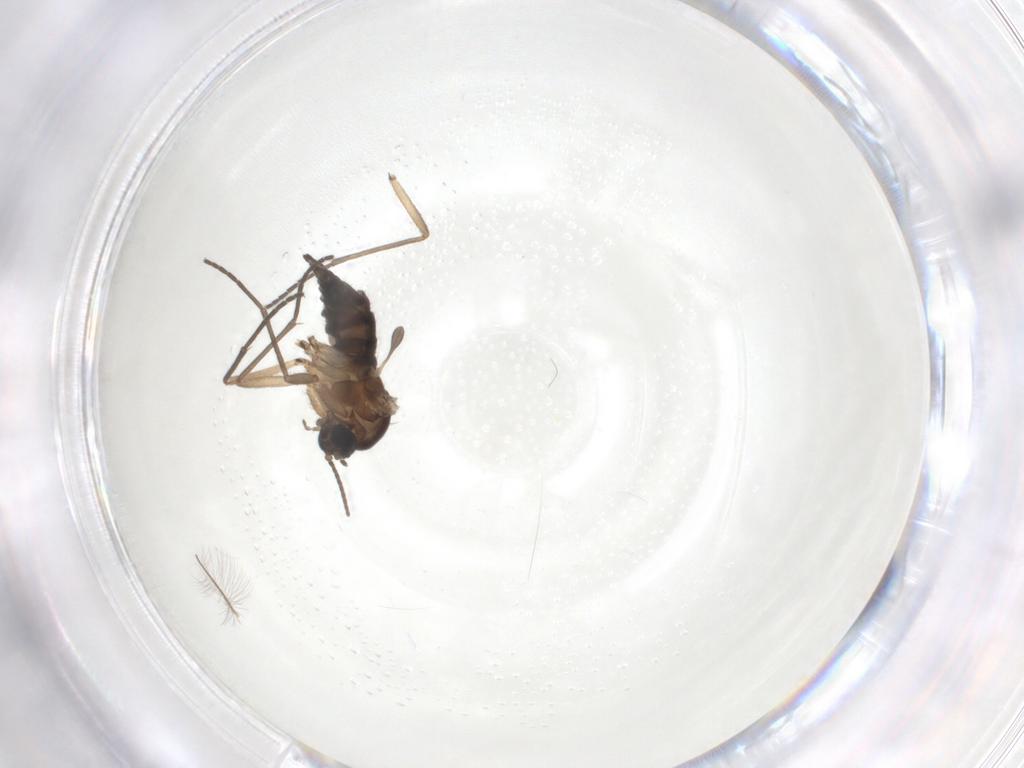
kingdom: Animalia
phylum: Arthropoda
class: Insecta
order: Diptera
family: Sciaridae
